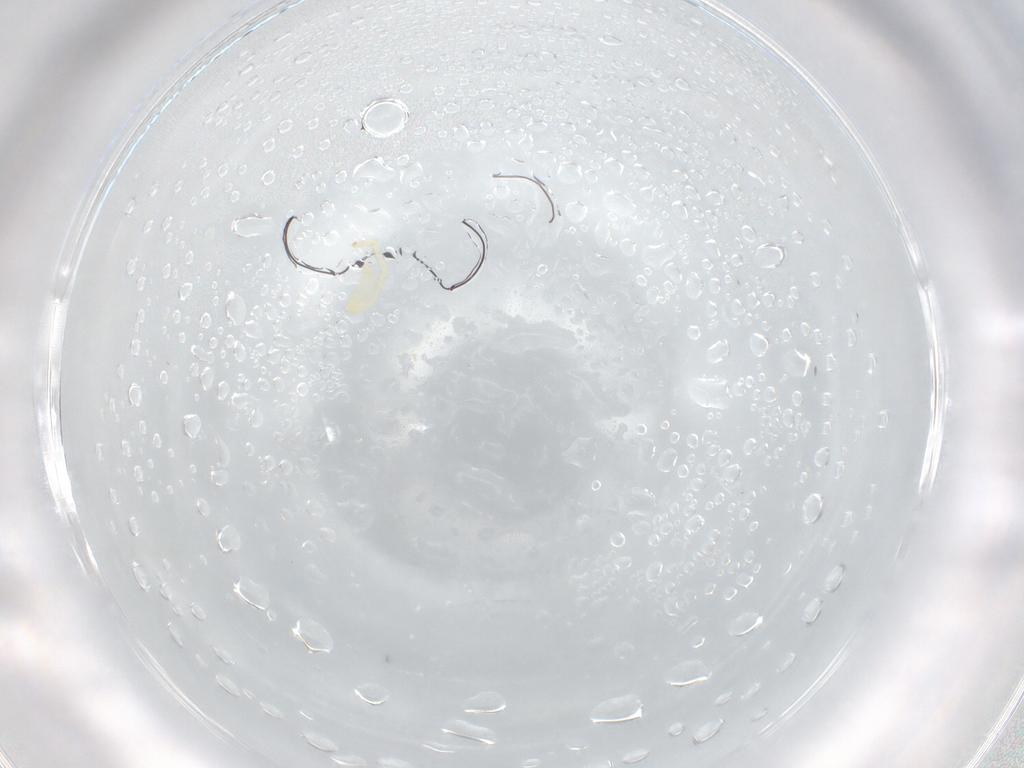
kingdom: Animalia
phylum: Arthropoda
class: Insecta
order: Diptera
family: Tachinidae
